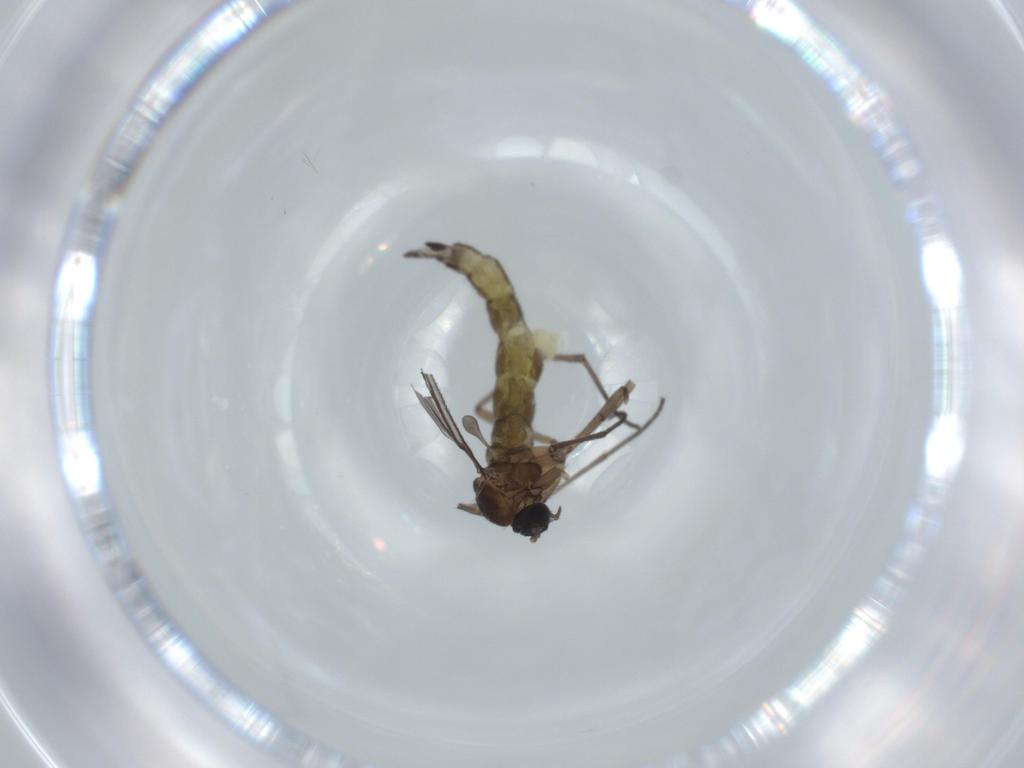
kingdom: Animalia
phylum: Arthropoda
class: Insecta
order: Diptera
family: Sciaridae
